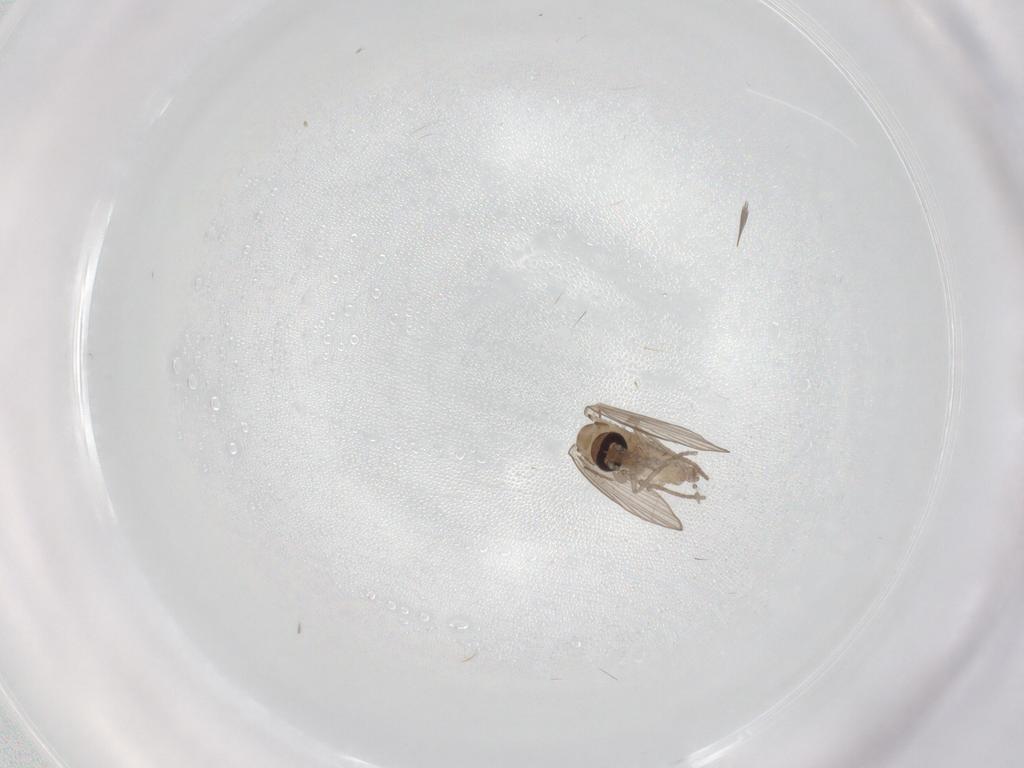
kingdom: Animalia
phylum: Arthropoda
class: Insecta
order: Diptera
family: Psychodidae
